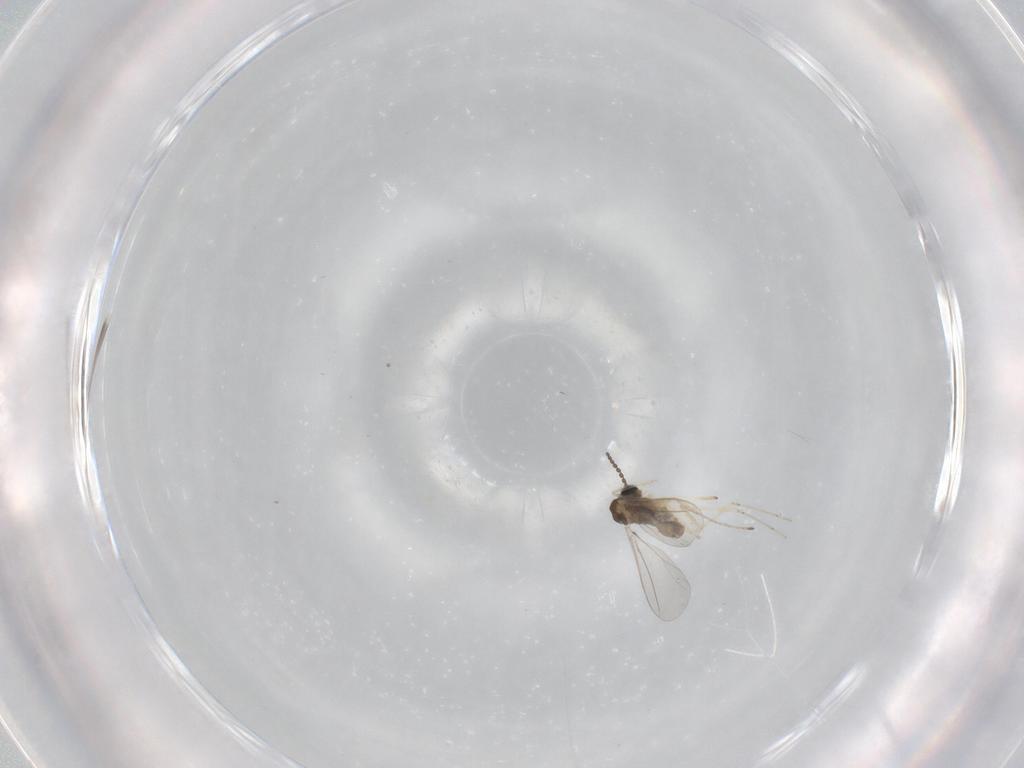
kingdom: Animalia
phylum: Arthropoda
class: Insecta
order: Diptera
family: Cecidomyiidae
